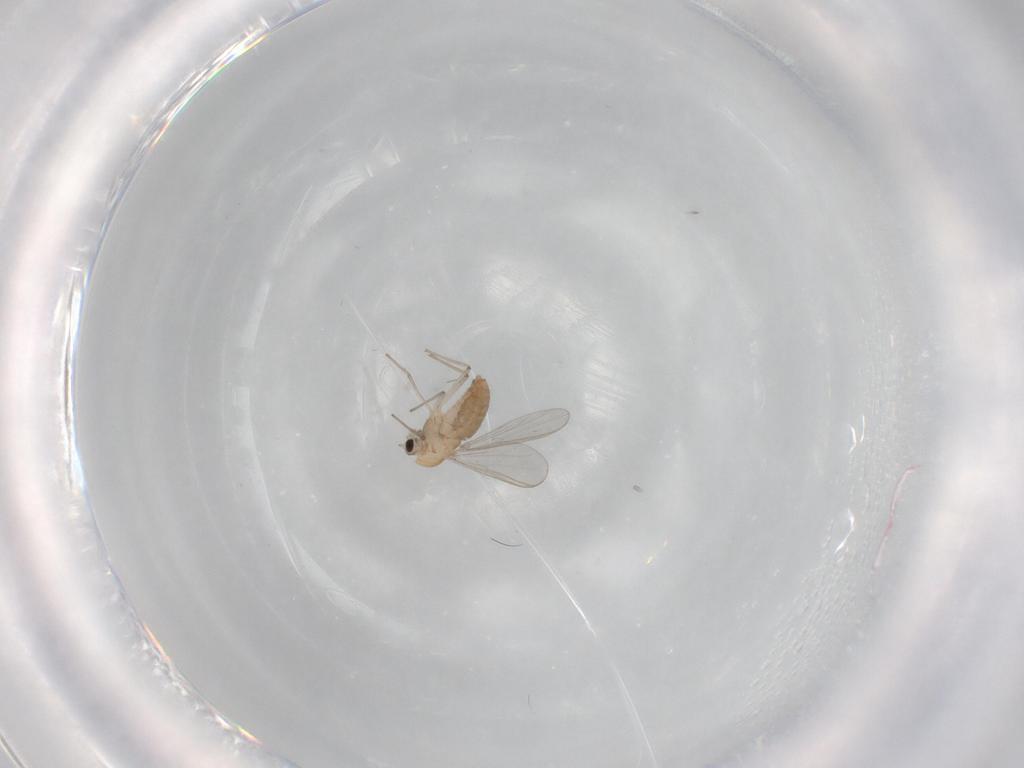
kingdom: Animalia
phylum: Arthropoda
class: Insecta
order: Diptera
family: Chironomidae
